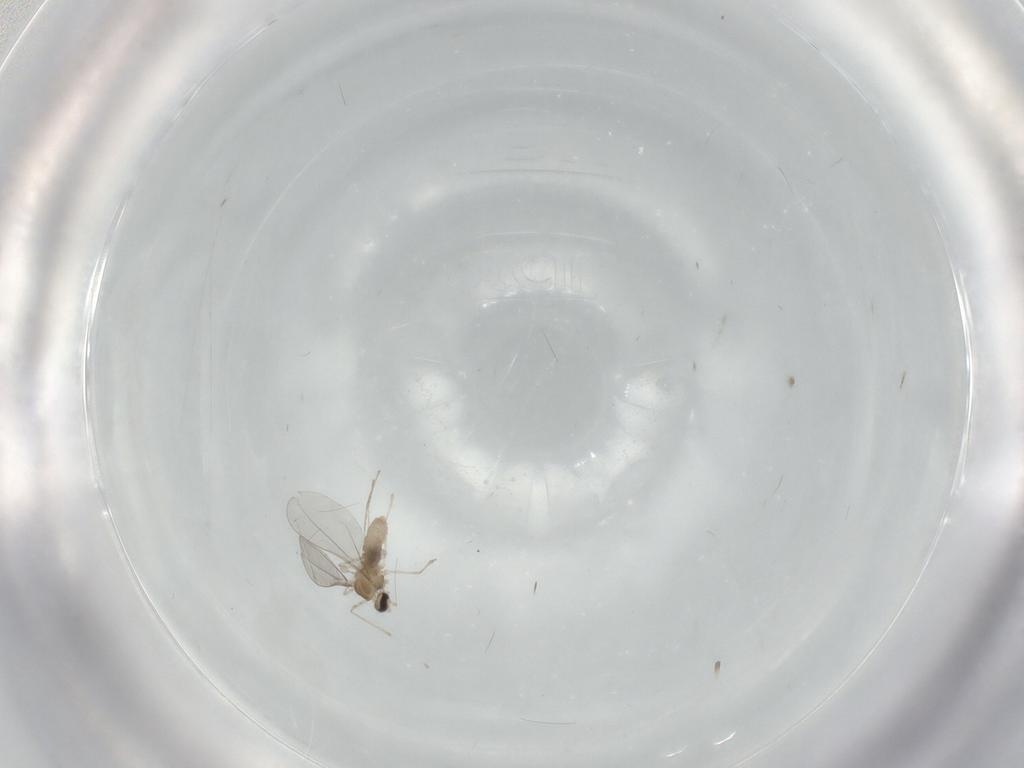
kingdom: Animalia
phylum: Arthropoda
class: Insecta
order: Diptera
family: Cecidomyiidae
